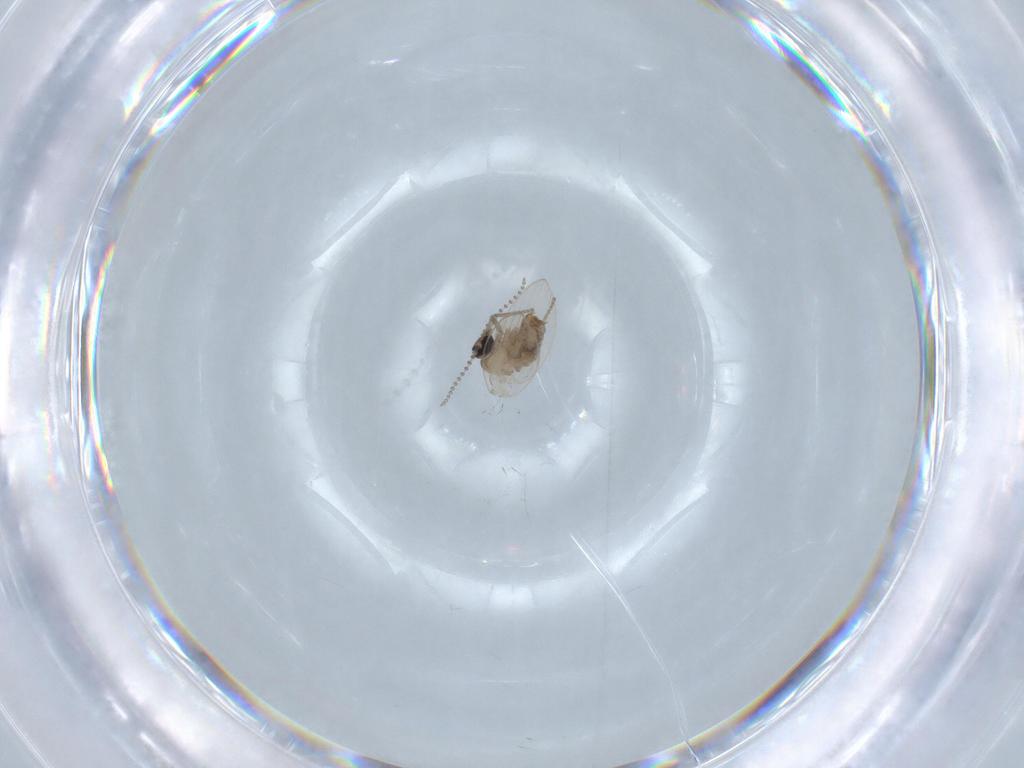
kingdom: Animalia
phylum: Arthropoda
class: Insecta
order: Diptera
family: Psychodidae
